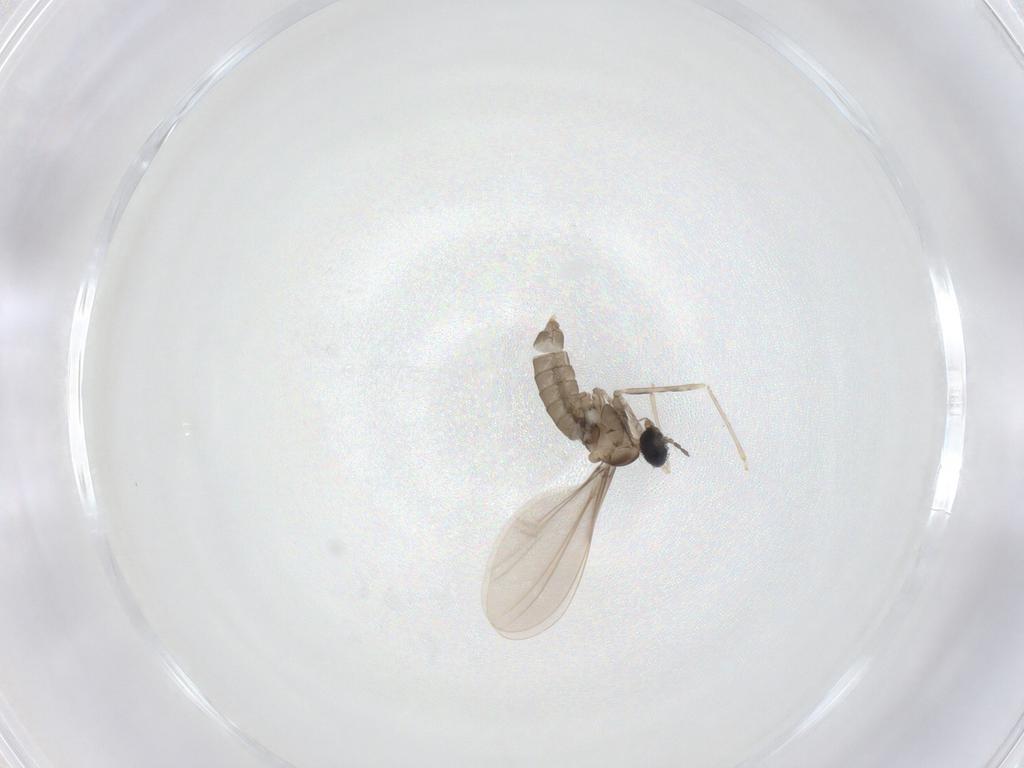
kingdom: Animalia
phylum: Arthropoda
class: Insecta
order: Diptera
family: Cecidomyiidae
